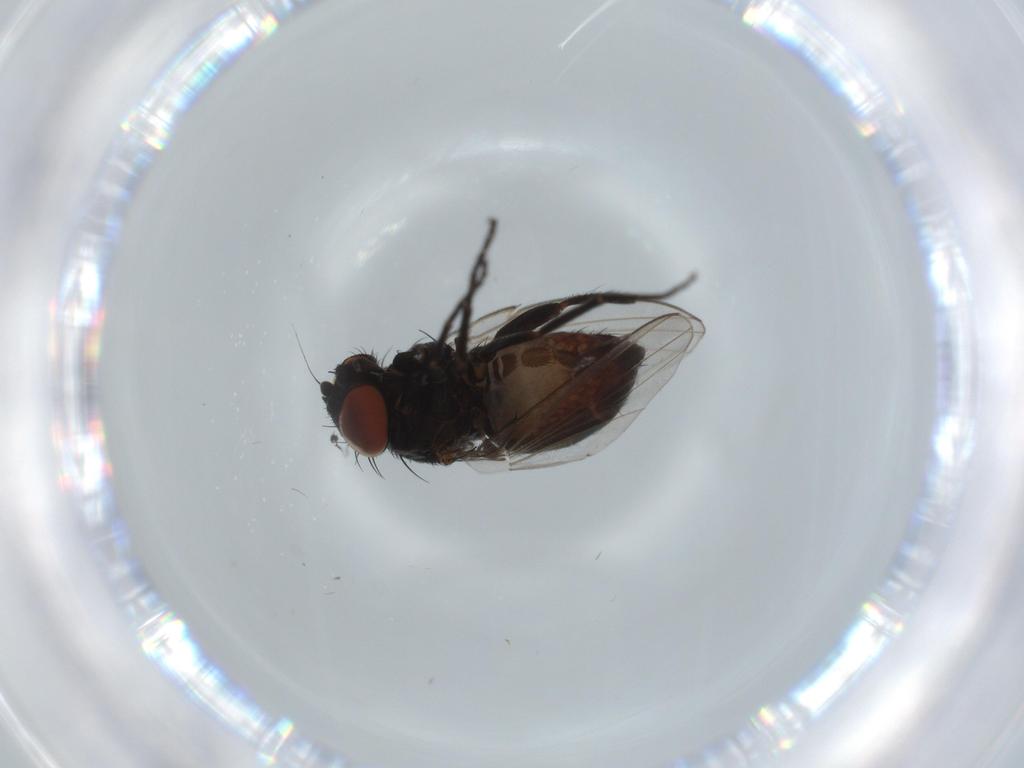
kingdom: Animalia
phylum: Arthropoda
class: Insecta
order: Diptera
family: Milichiidae
